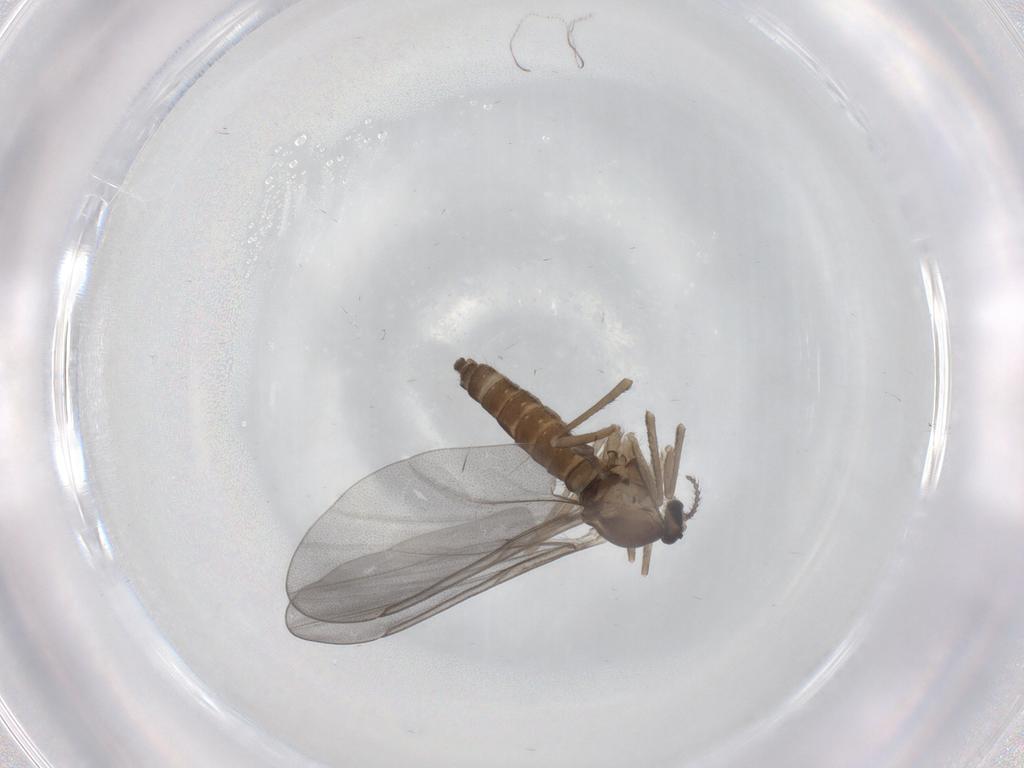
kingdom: Animalia
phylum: Arthropoda
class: Insecta
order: Diptera
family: Cecidomyiidae
